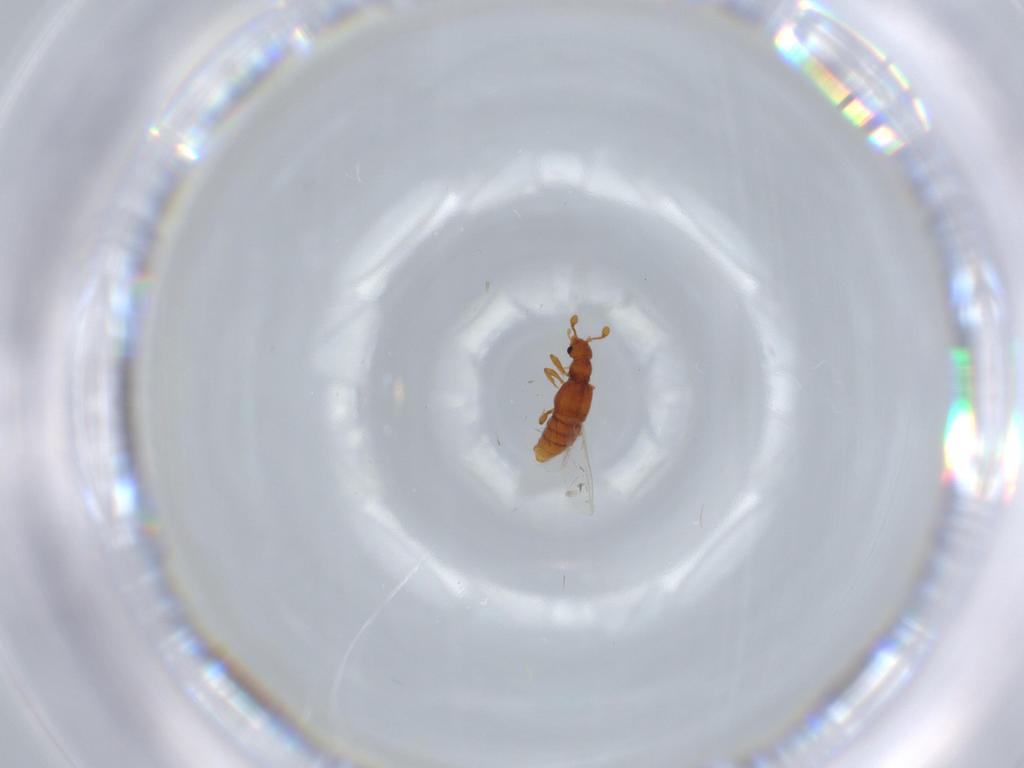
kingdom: Animalia
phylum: Arthropoda
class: Insecta
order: Coleoptera
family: Staphylinidae
